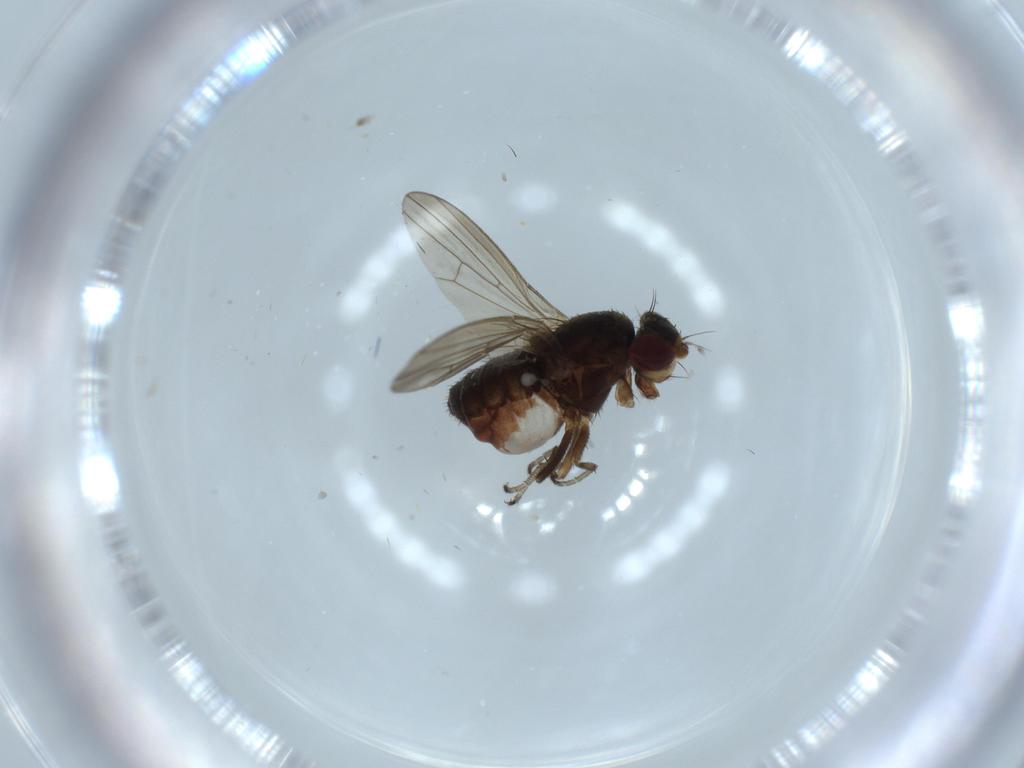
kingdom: Animalia
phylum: Arthropoda
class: Insecta
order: Diptera
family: Heleomyzidae
